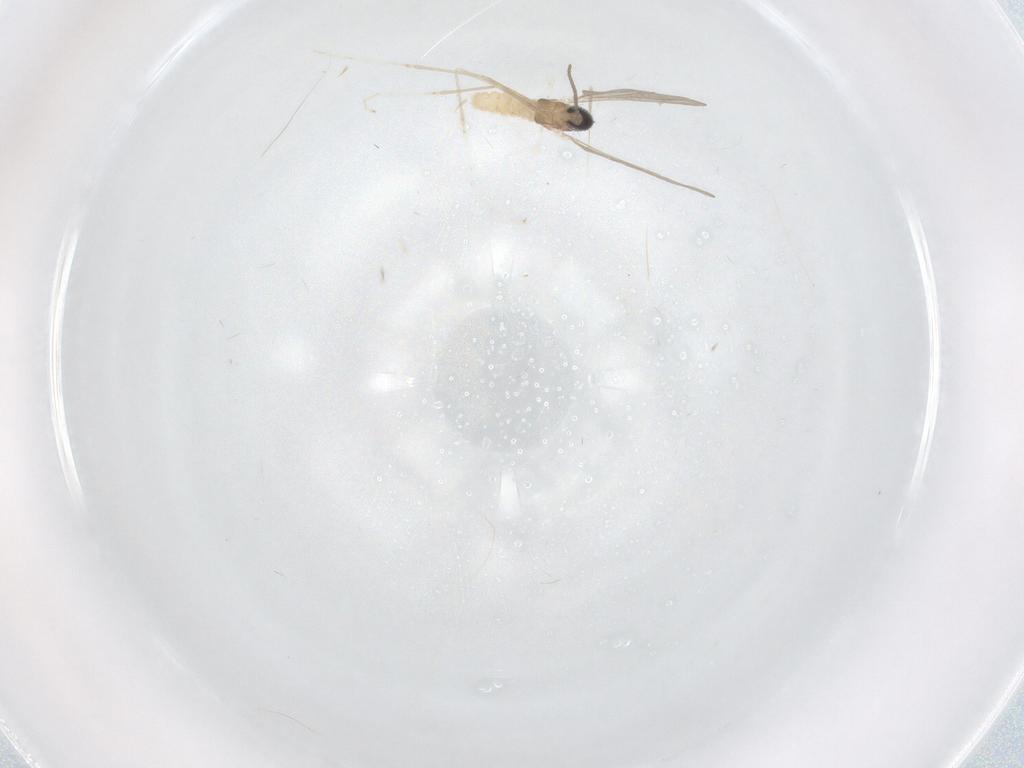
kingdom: Animalia
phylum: Arthropoda
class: Insecta
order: Diptera
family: Cecidomyiidae
